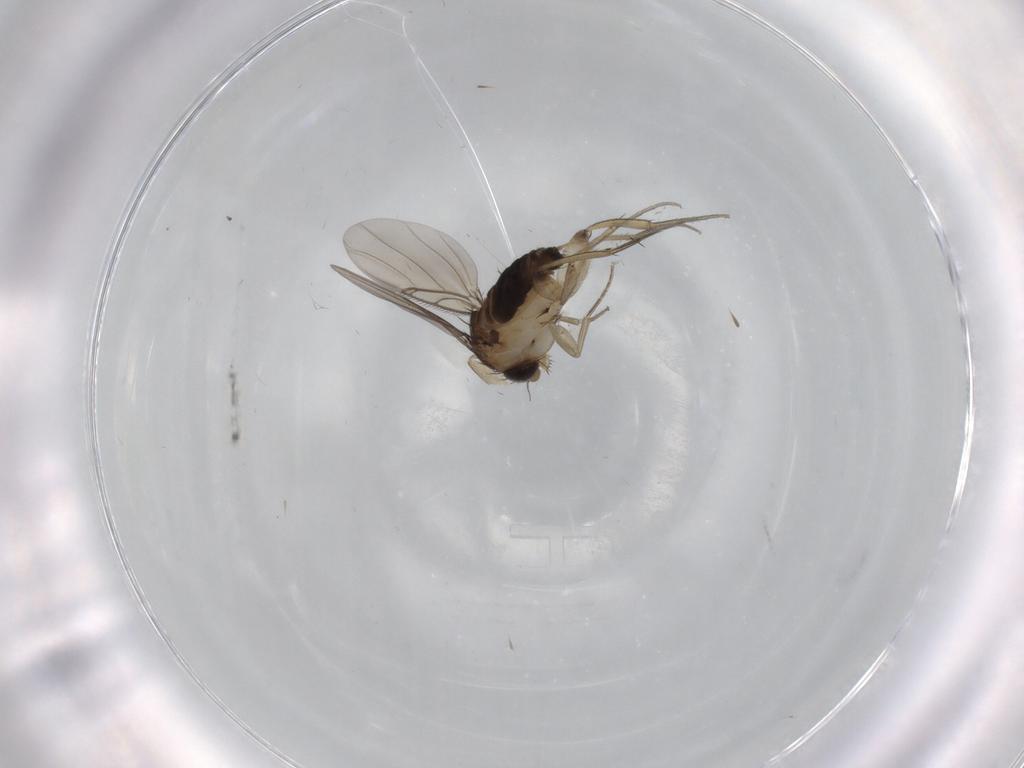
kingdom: Animalia
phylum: Arthropoda
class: Insecta
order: Diptera
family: Phoridae
